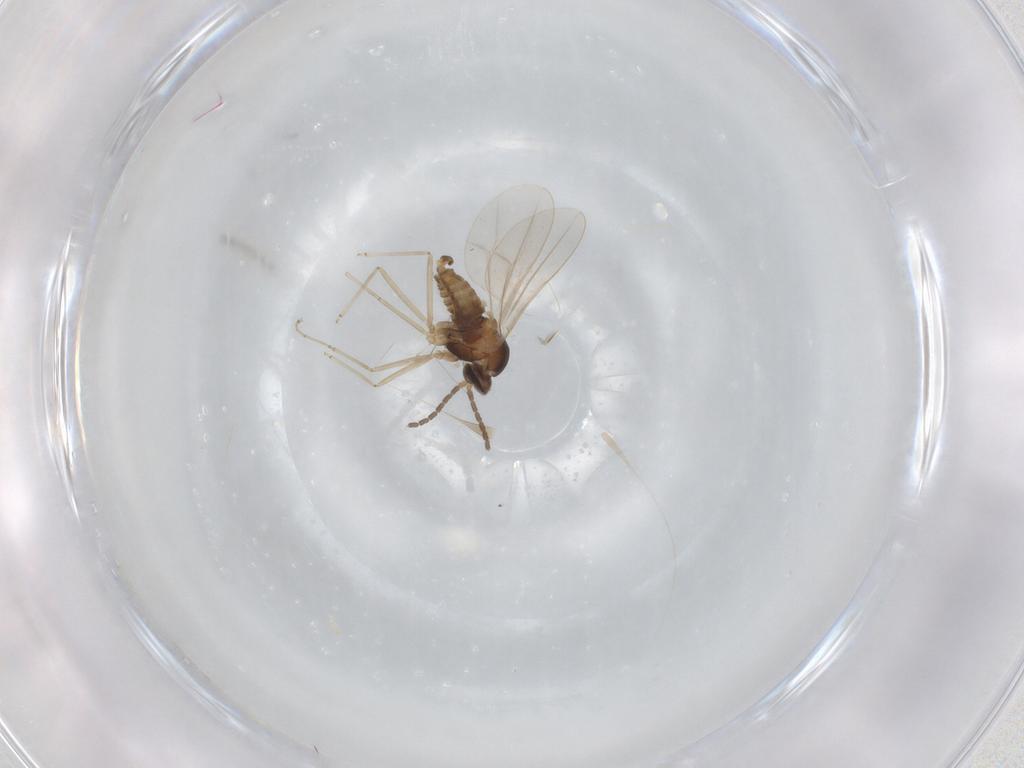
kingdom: Animalia
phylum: Arthropoda
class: Insecta
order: Diptera
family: Cecidomyiidae
